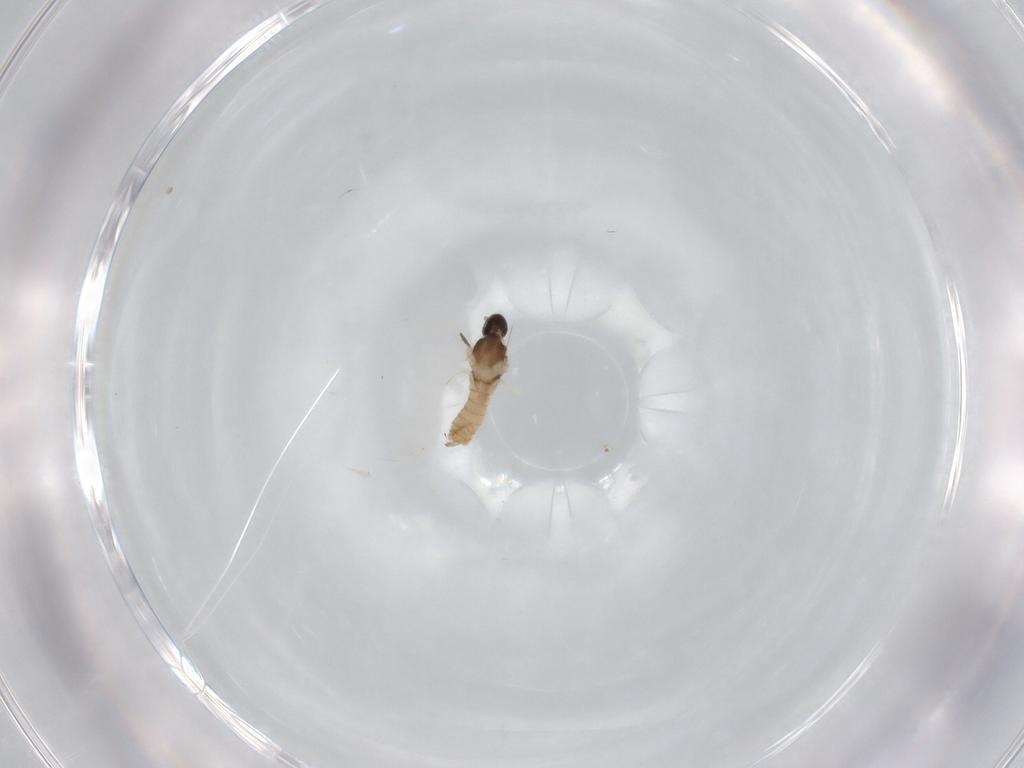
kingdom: Animalia
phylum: Arthropoda
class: Insecta
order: Diptera
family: Cecidomyiidae
